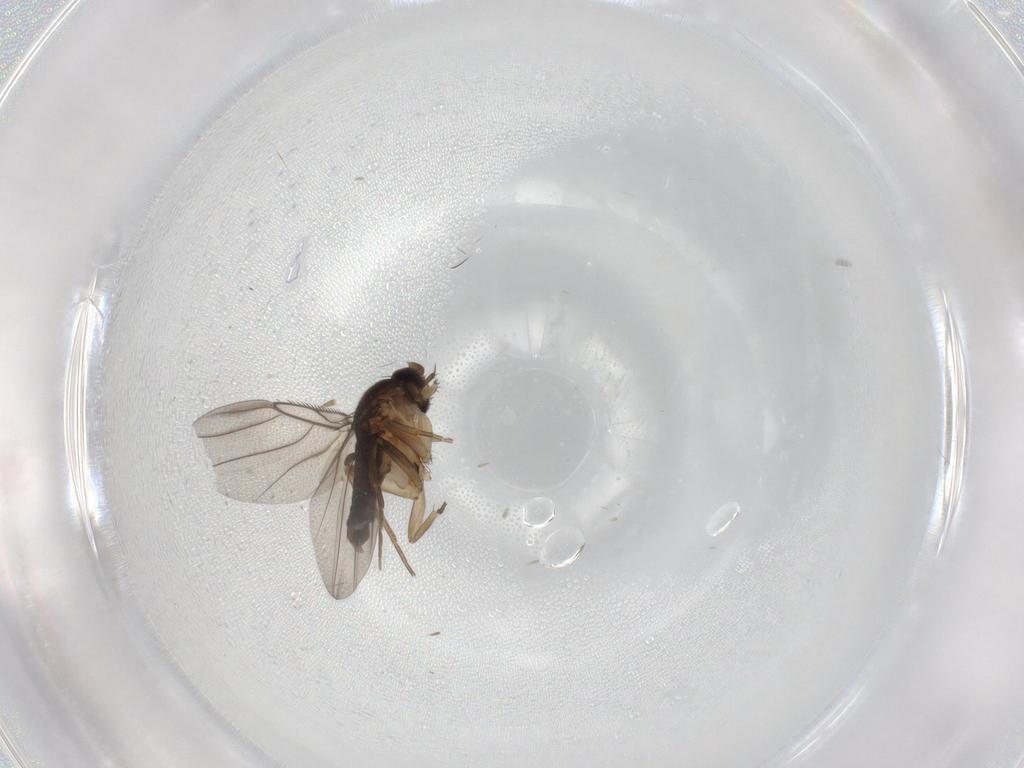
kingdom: Animalia
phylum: Arthropoda
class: Insecta
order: Diptera
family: Phoridae
